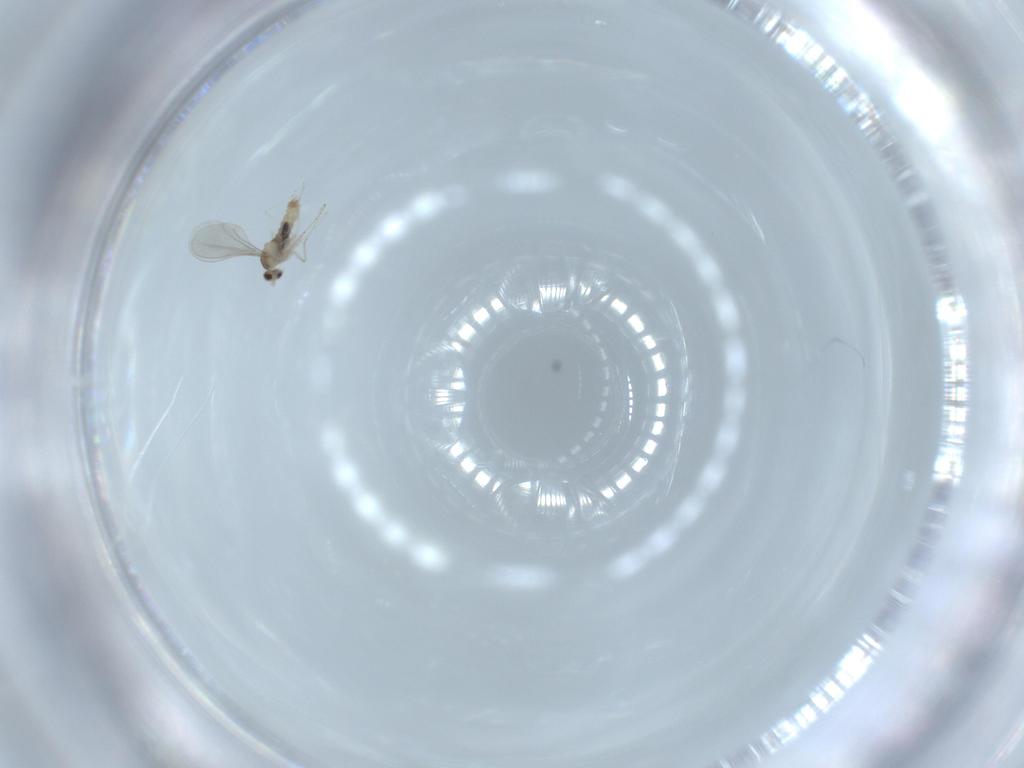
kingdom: Animalia
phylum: Arthropoda
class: Insecta
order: Diptera
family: Cecidomyiidae
